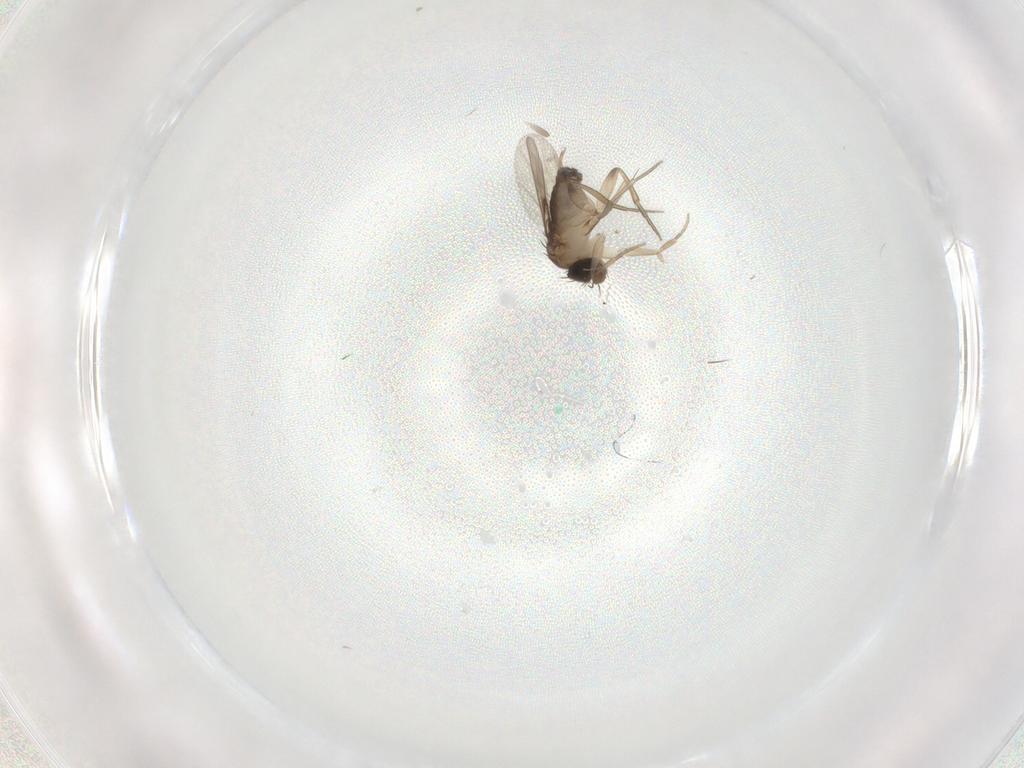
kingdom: Animalia
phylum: Arthropoda
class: Insecta
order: Diptera
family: Phoridae
